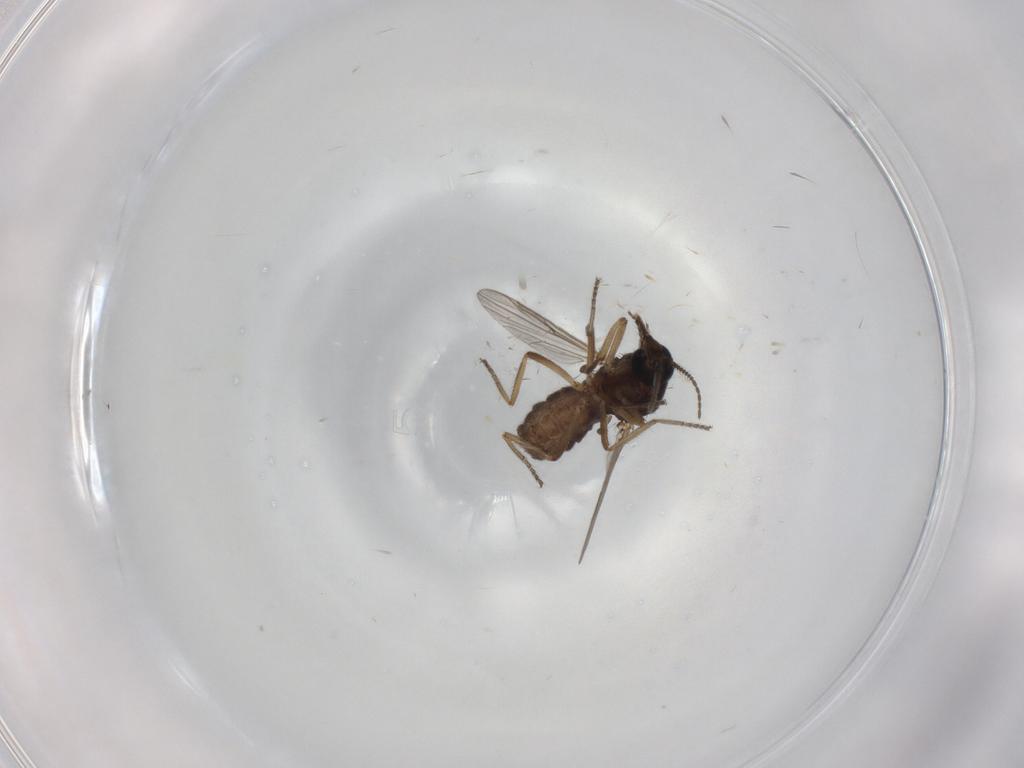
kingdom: Animalia
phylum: Arthropoda
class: Insecta
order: Diptera
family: Ceratopogonidae
